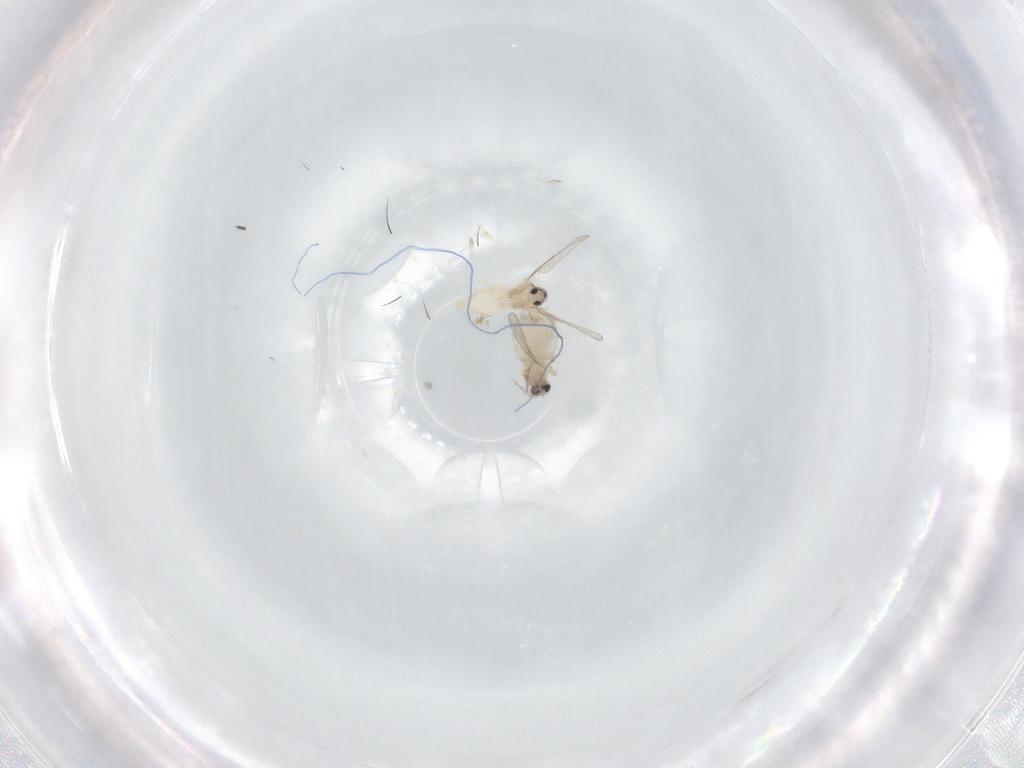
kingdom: Animalia
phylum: Arthropoda
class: Insecta
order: Diptera
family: Cecidomyiidae
